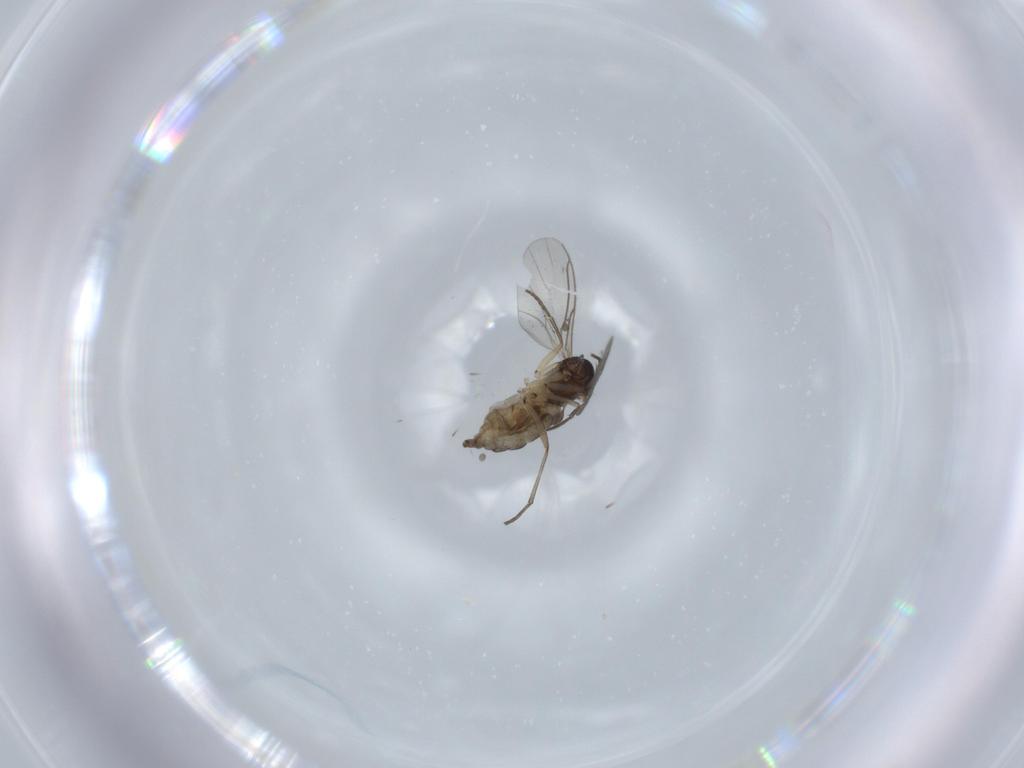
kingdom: Animalia
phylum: Arthropoda
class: Insecta
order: Diptera
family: Sciaridae
